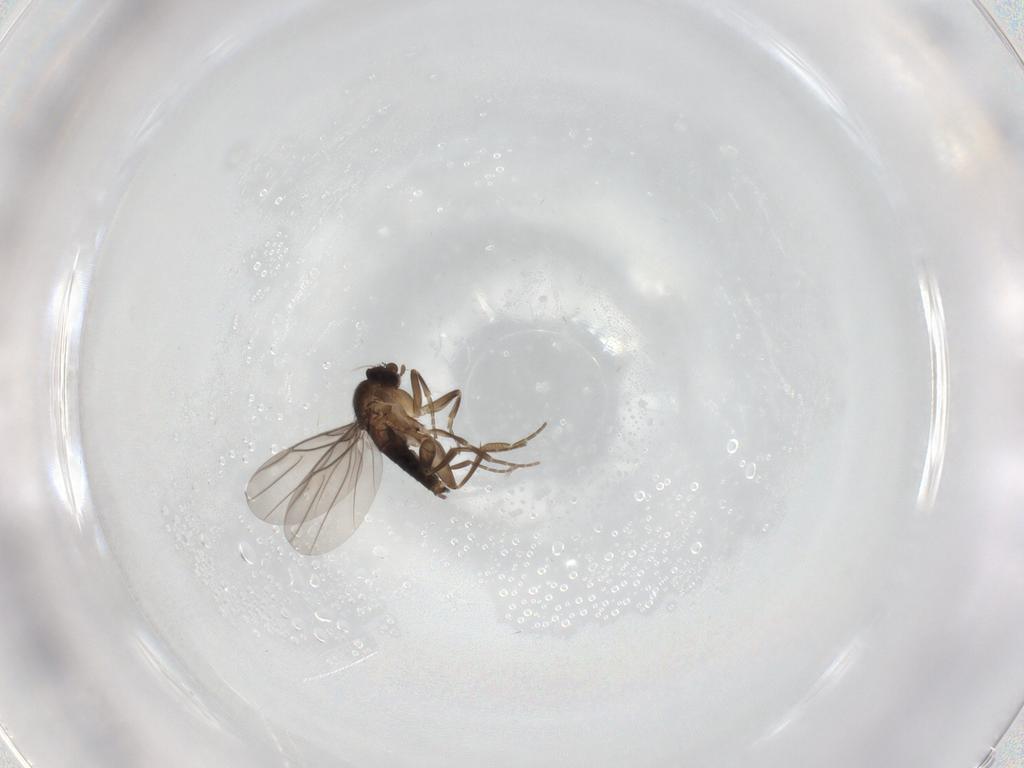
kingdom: Animalia
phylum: Arthropoda
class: Insecta
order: Diptera
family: Phoridae
